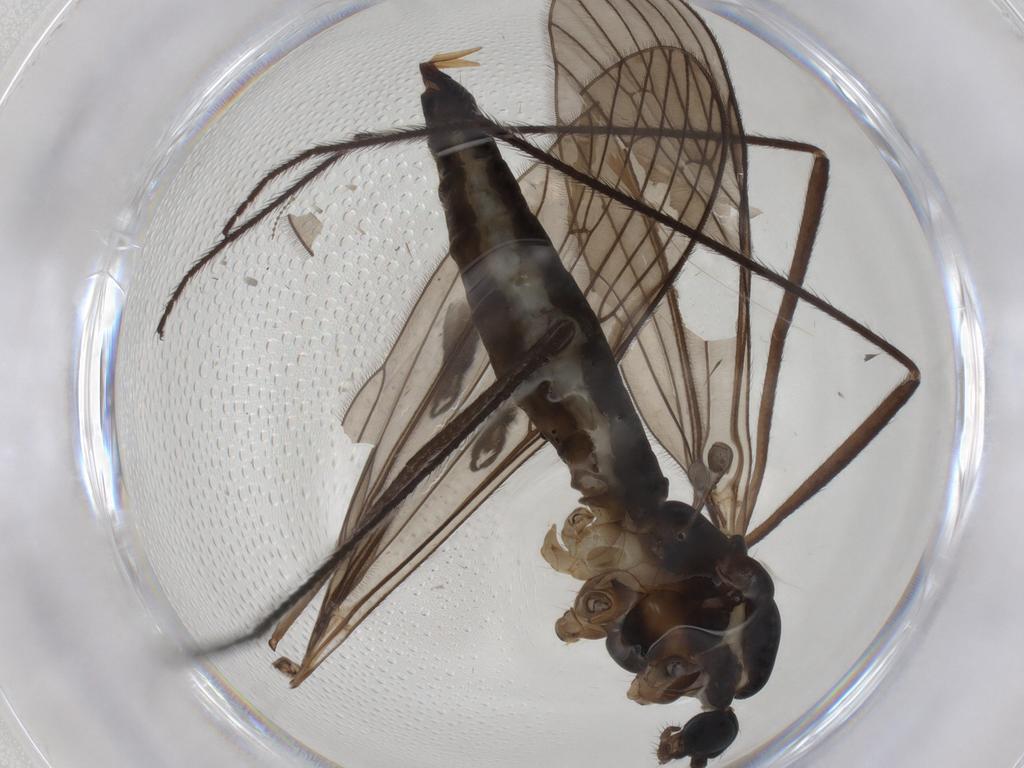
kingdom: Animalia
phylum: Arthropoda
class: Insecta
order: Diptera
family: Limoniidae
